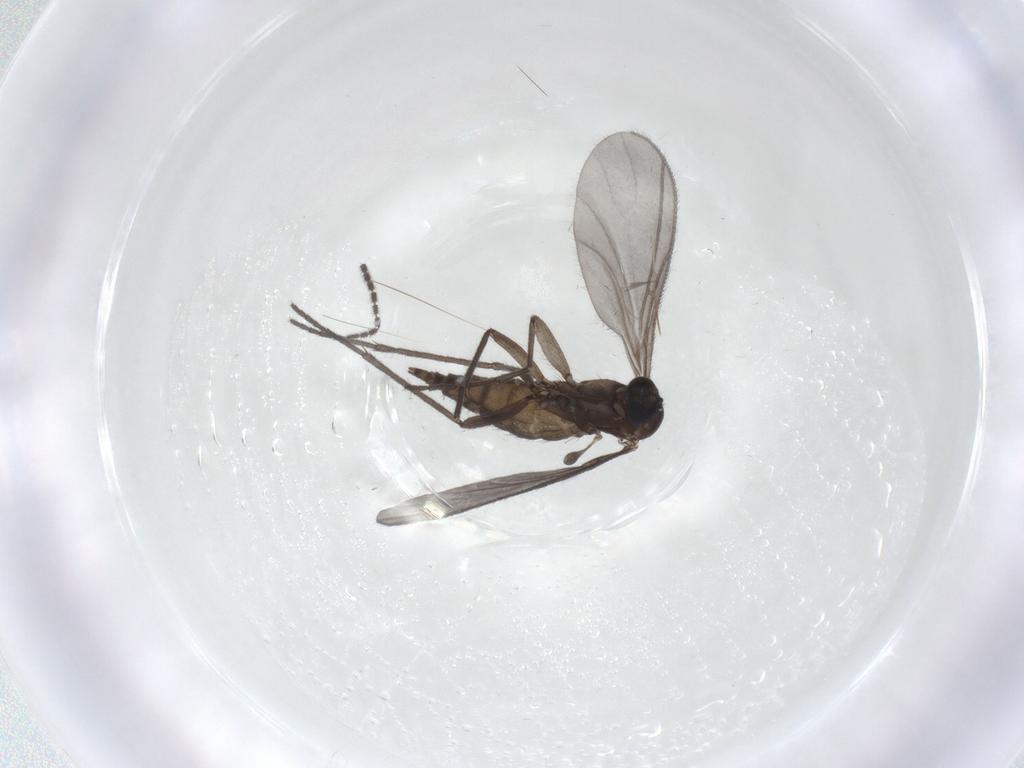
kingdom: Animalia
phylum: Arthropoda
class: Insecta
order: Diptera
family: Sciaridae
